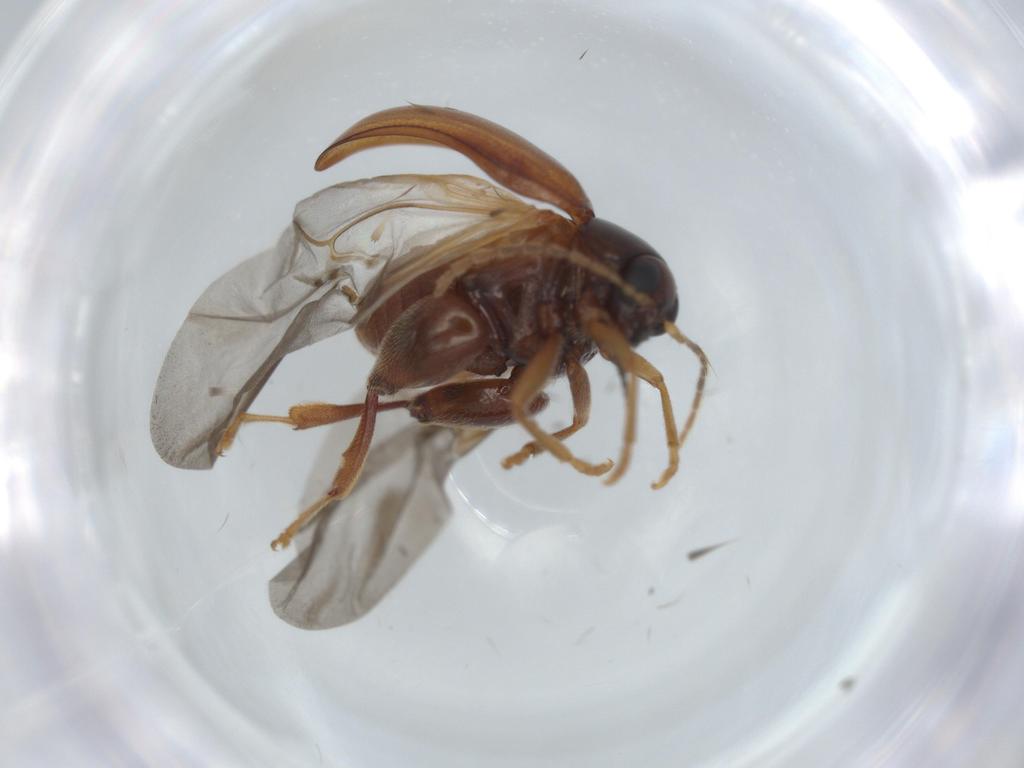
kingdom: Animalia
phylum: Arthropoda
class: Insecta
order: Coleoptera
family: Chrysomelidae
